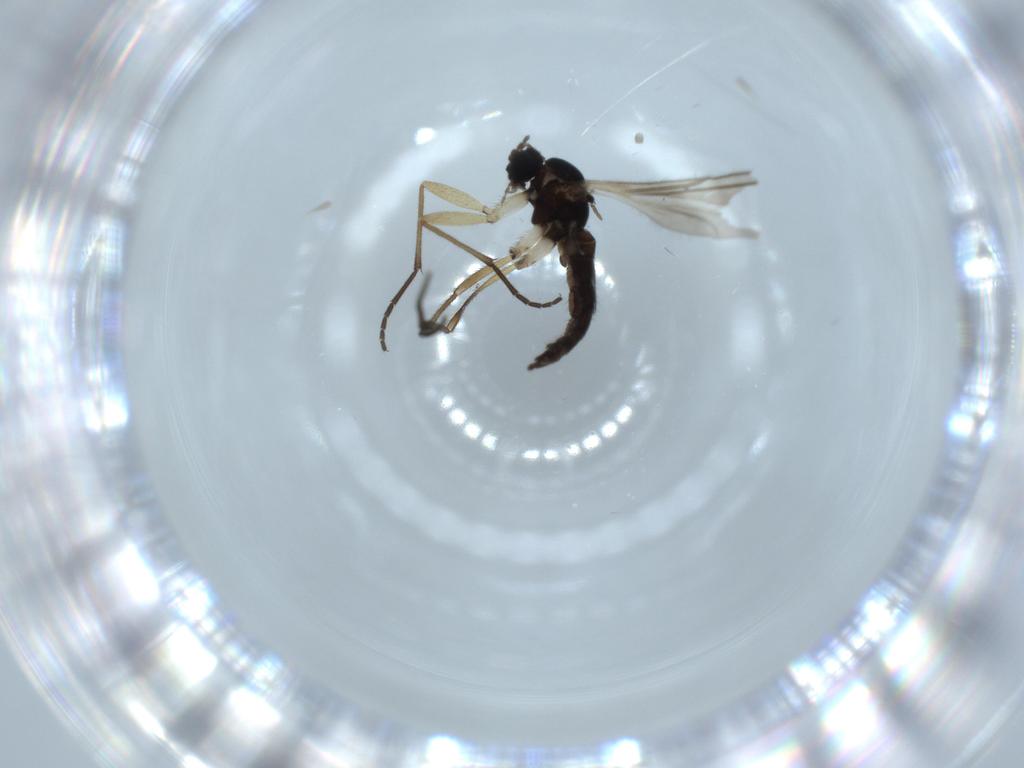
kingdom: Animalia
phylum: Arthropoda
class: Insecta
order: Diptera
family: Sciaridae
